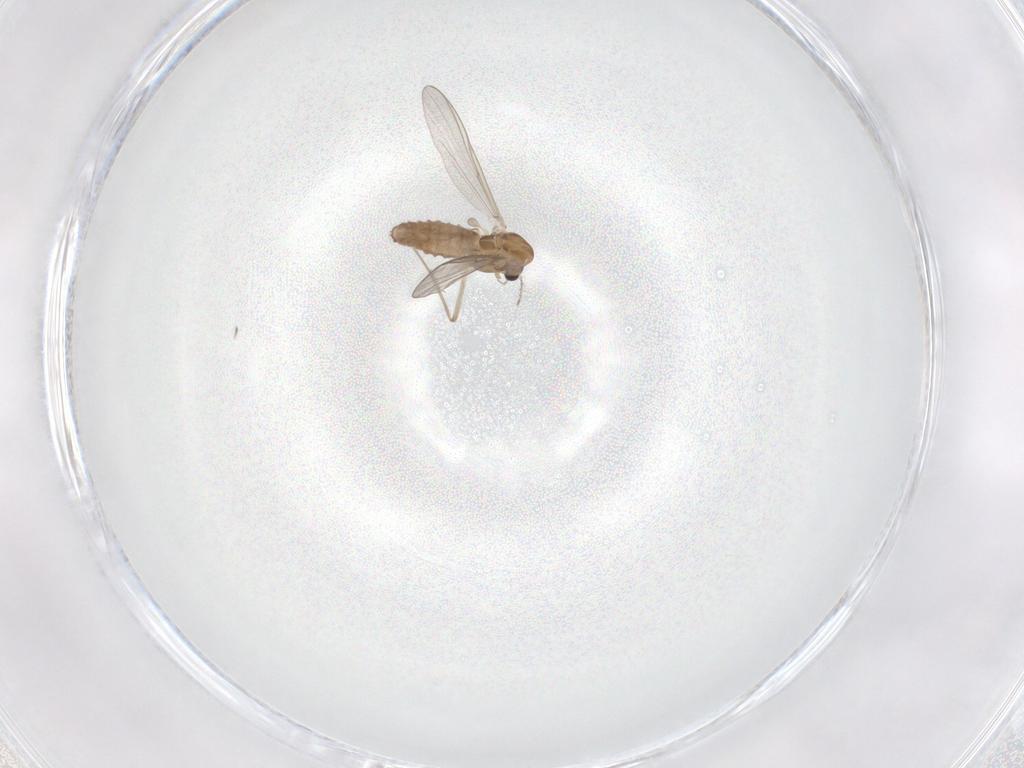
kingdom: Animalia
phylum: Arthropoda
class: Insecta
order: Diptera
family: Chironomidae
